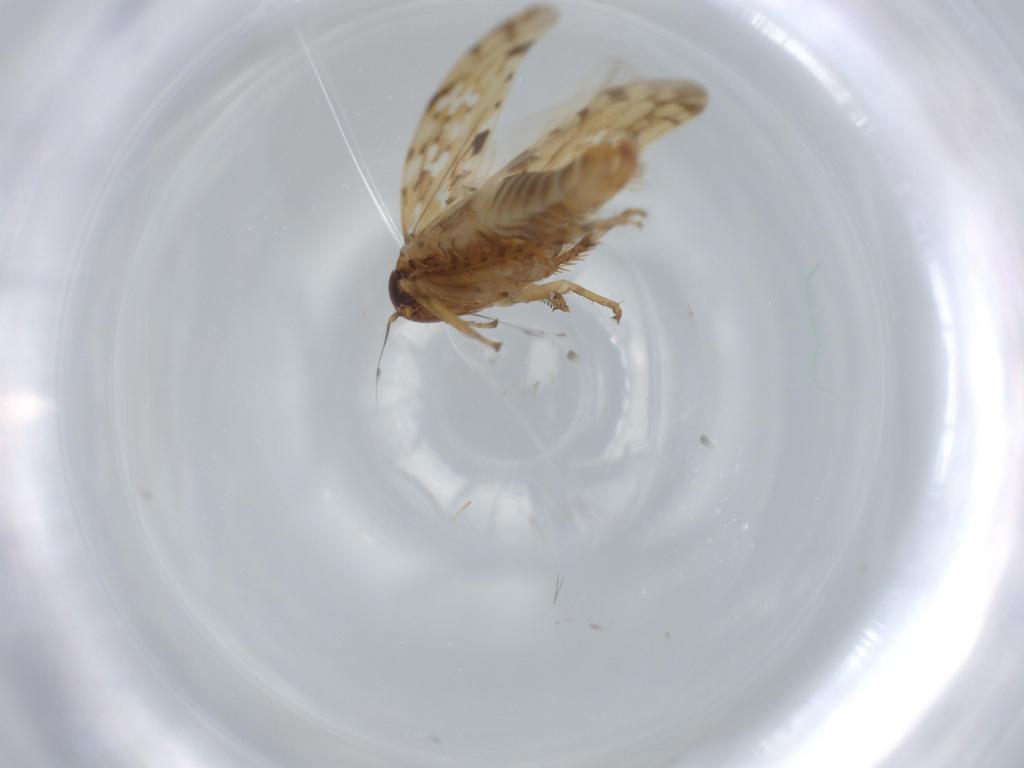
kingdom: Animalia
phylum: Arthropoda
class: Insecta
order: Hemiptera
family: Cicadellidae
